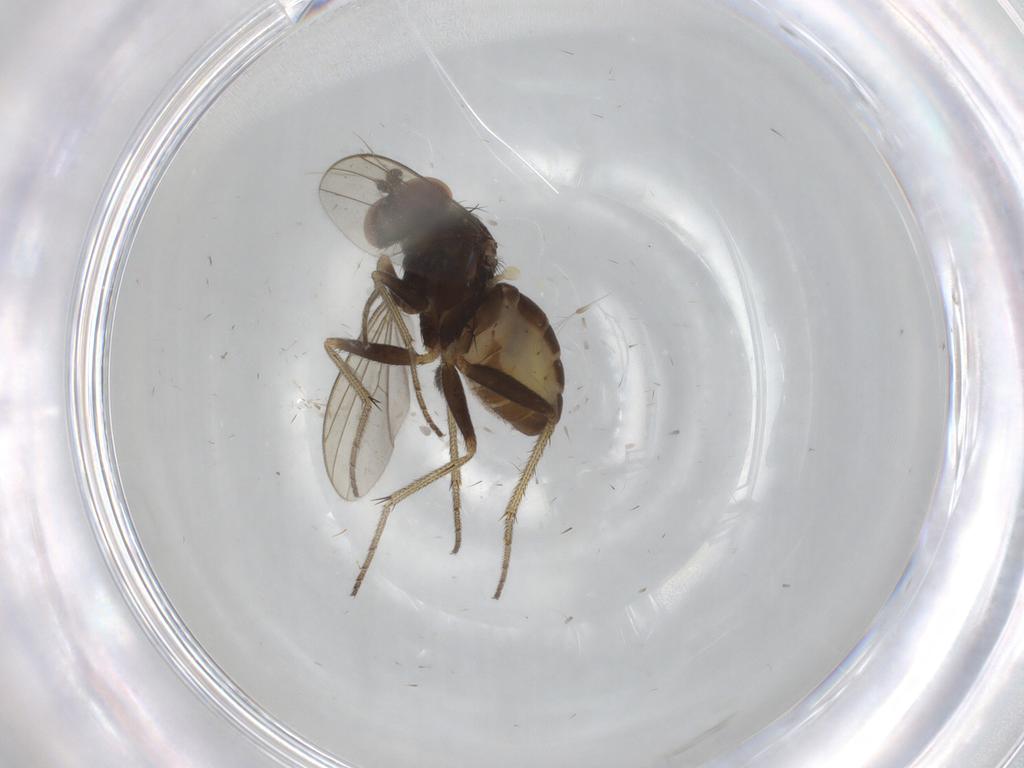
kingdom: Animalia
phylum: Arthropoda
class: Insecta
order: Diptera
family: Dolichopodidae
